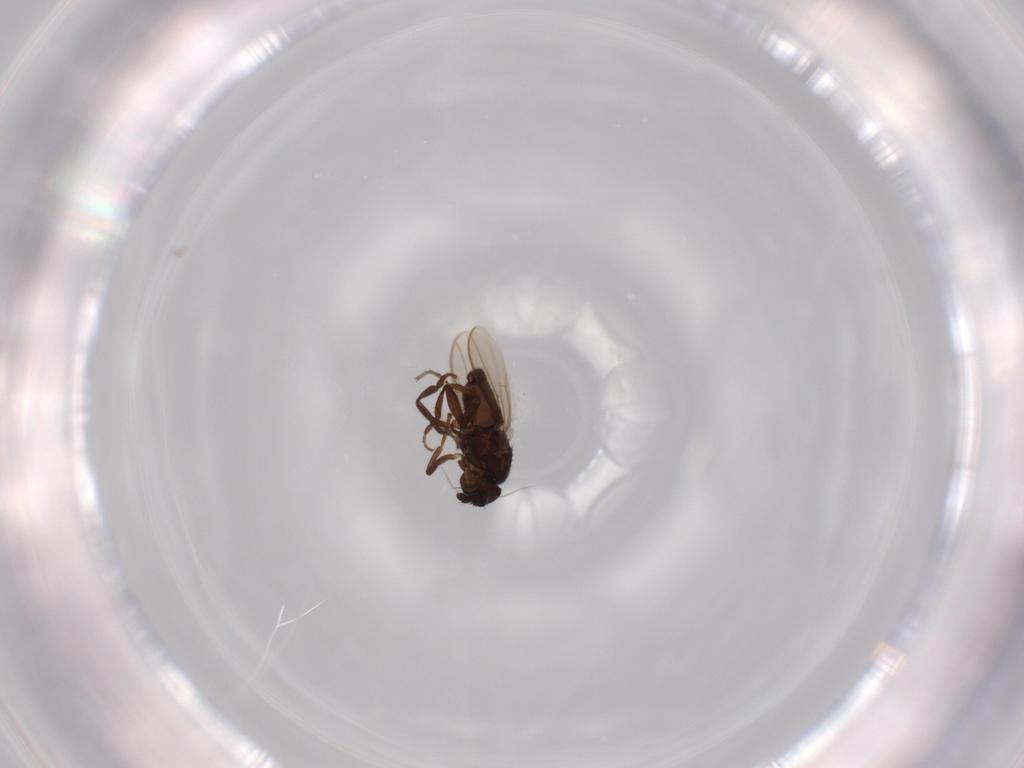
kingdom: Animalia
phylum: Arthropoda
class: Insecta
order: Diptera
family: Sphaeroceridae
